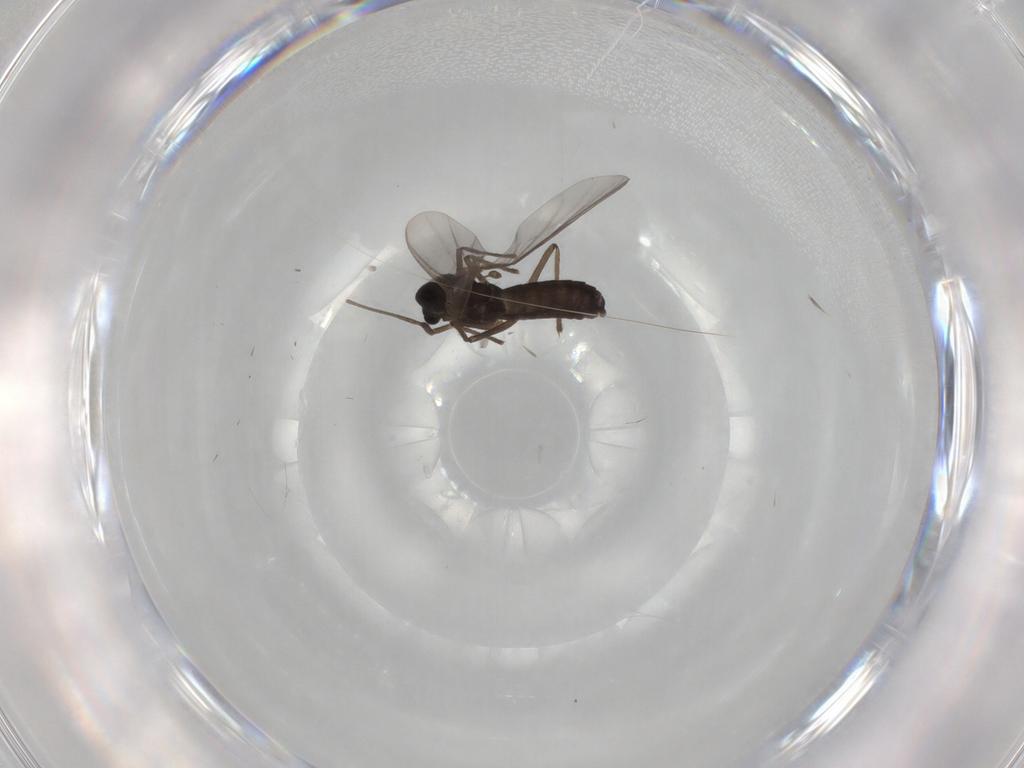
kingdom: Animalia
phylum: Arthropoda
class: Insecta
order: Diptera
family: Chironomidae
